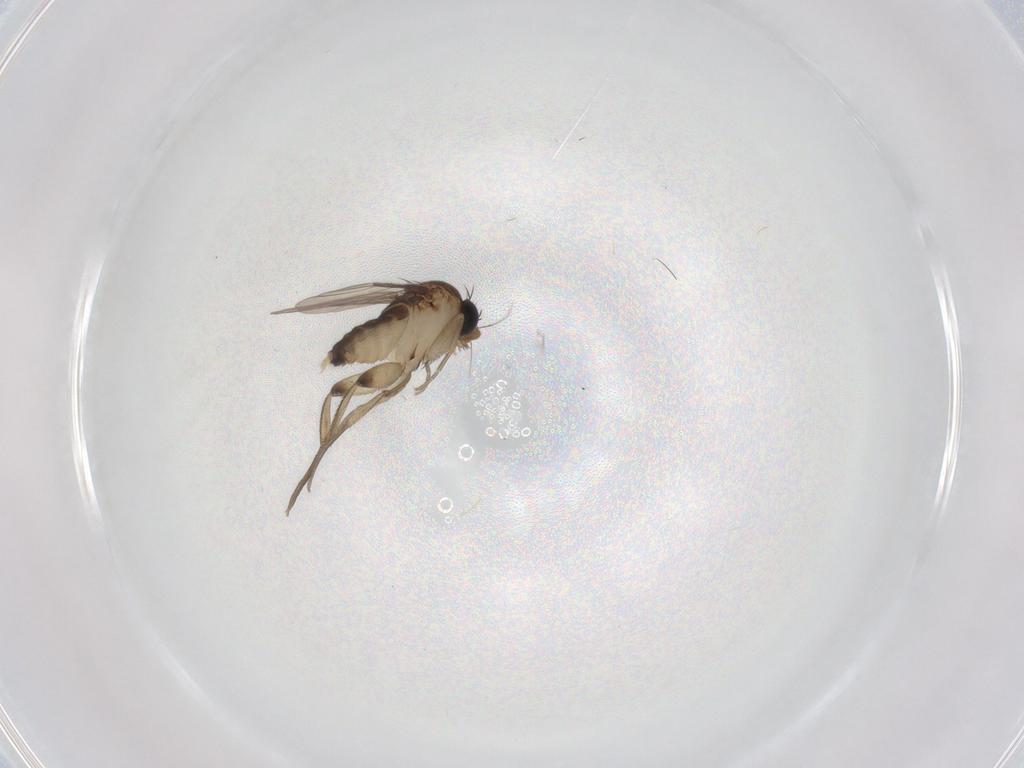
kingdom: Animalia
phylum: Arthropoda
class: Insecta
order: Diptera
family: Phoridae
